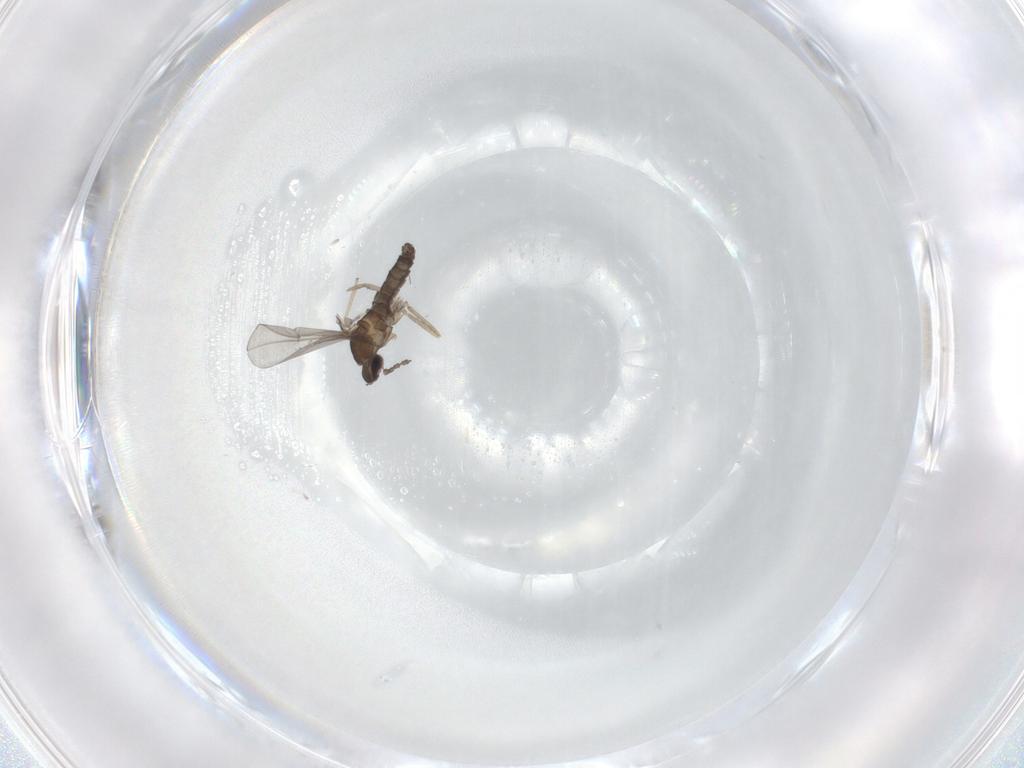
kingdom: Animalia
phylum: Arthropoda
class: Insecta
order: Diptera
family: Cecidomyiidae
